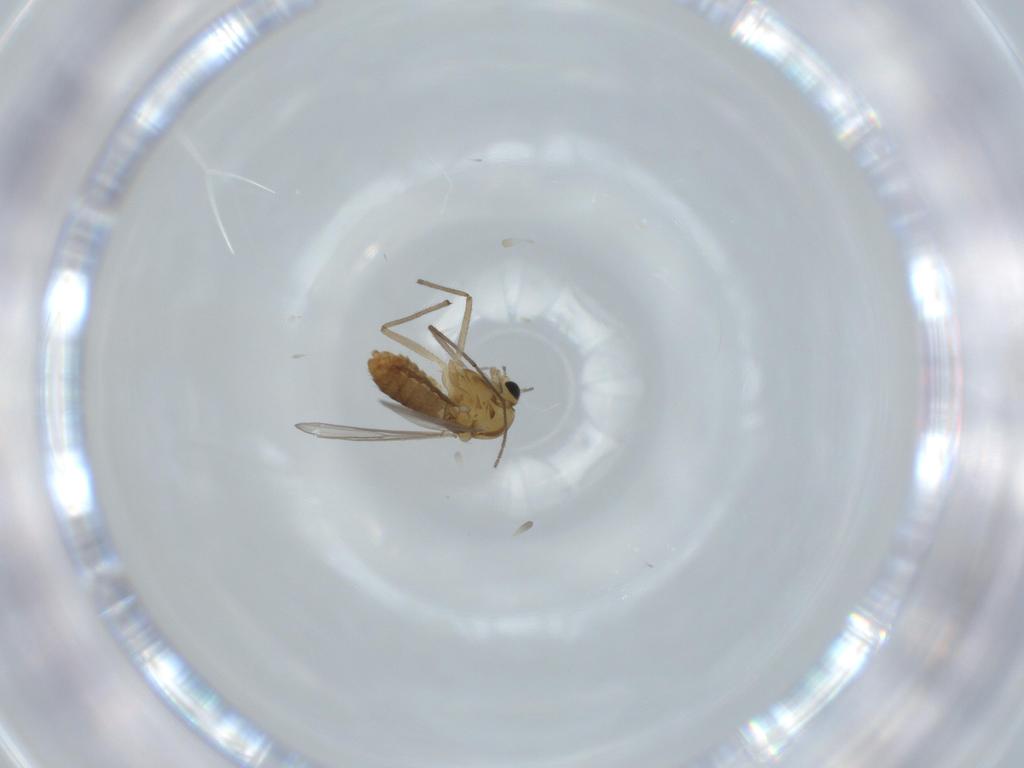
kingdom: Animalia
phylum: Arthropoda
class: Insecta
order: Diptera
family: Chironomidae
